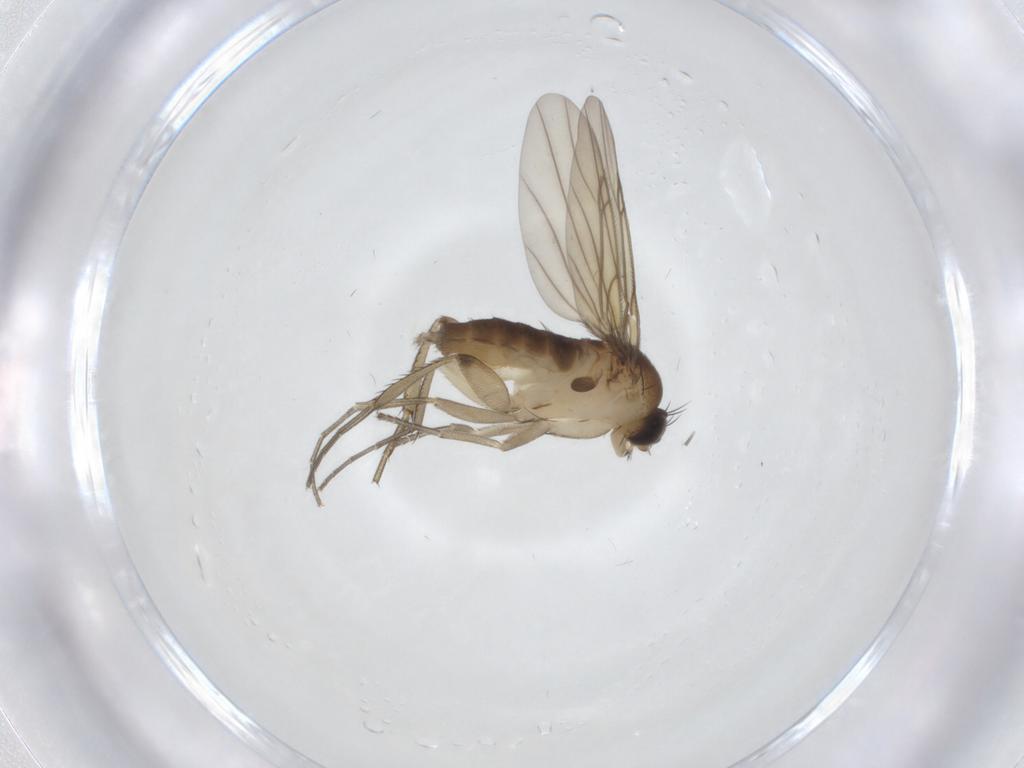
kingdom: Animalia
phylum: Arthropoda
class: Insecta
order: Diptera
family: Phoridae
